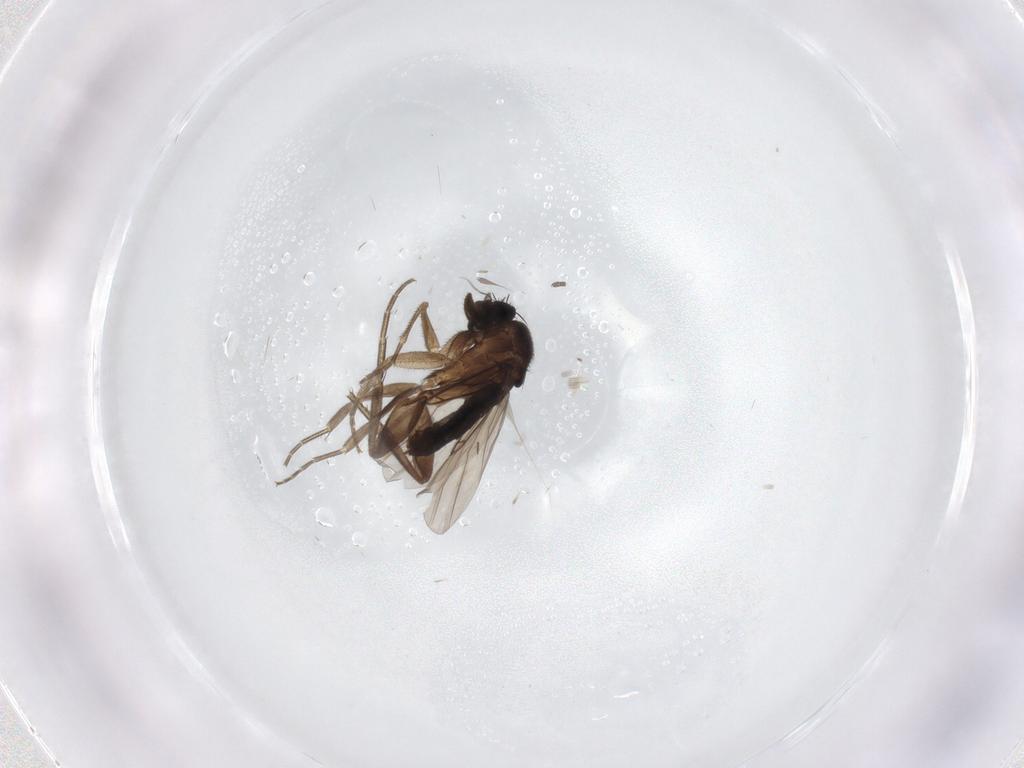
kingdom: Animalia
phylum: Arthropoda
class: Insecta
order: Diptera
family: Phoridae
